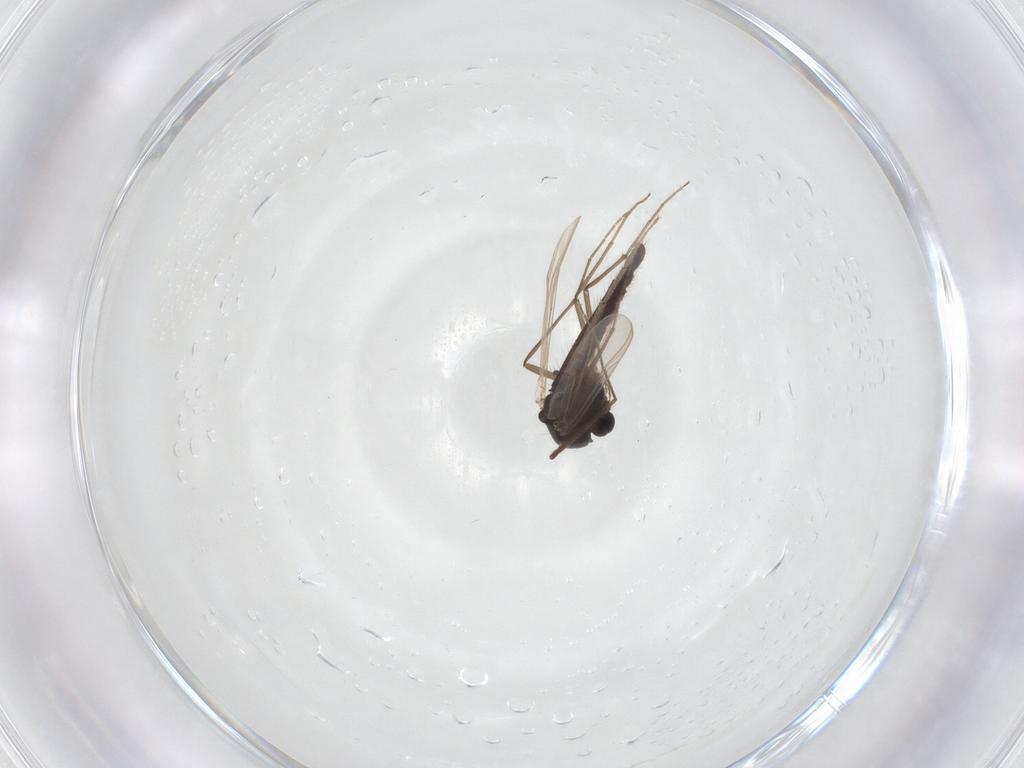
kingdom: Animalia
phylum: Arthropoda
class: Insecta
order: Diptera
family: Chironomidae
